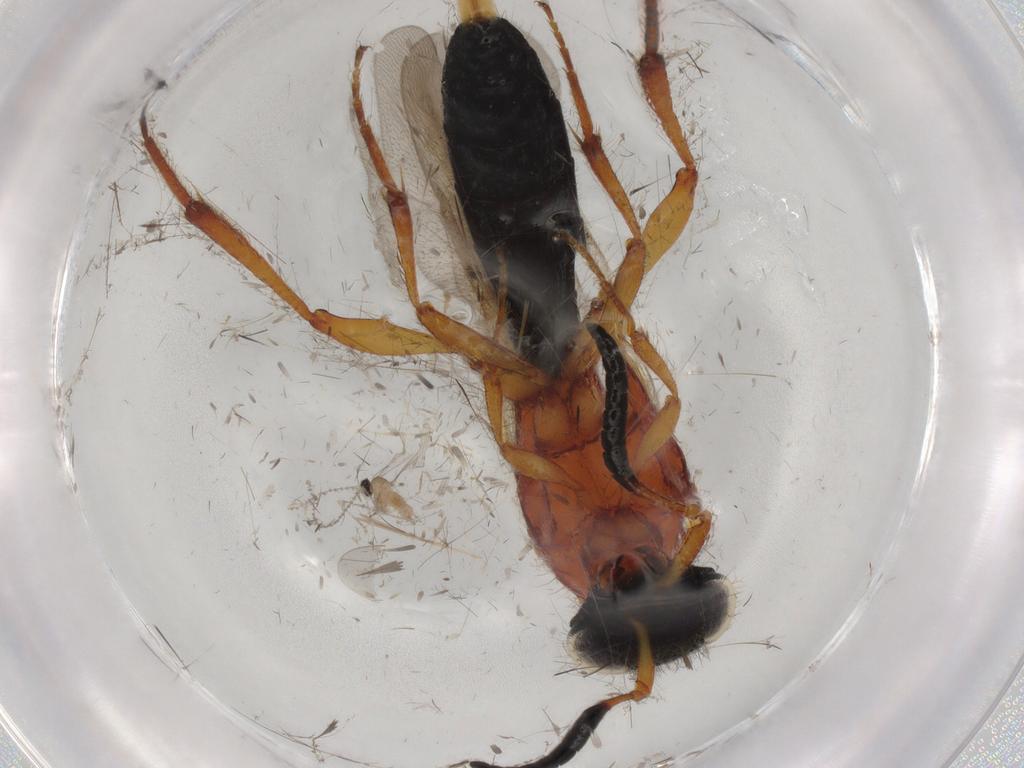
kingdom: Animalia
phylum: Arthropoda
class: Insecta
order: Diptera
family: Cecidomyiidae
